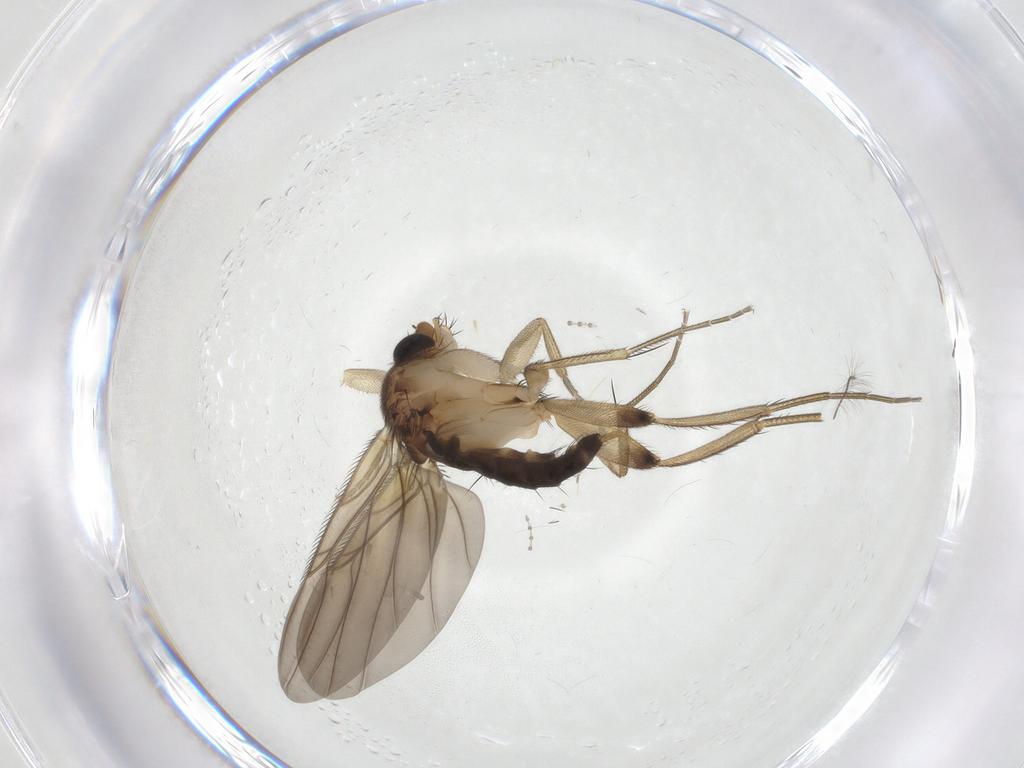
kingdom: Animalia
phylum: Arthropoda
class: Insecta
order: Diptera
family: Phoridae
